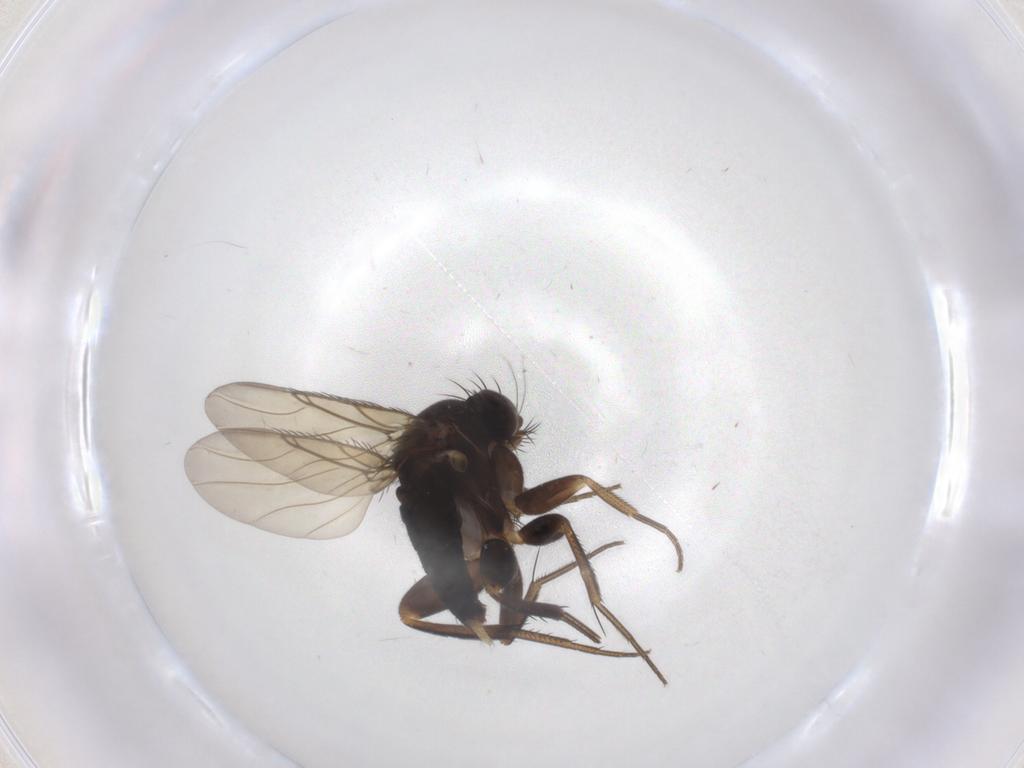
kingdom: Animalia
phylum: Arthropoda
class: Insecta
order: Diptera
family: Phoridae
